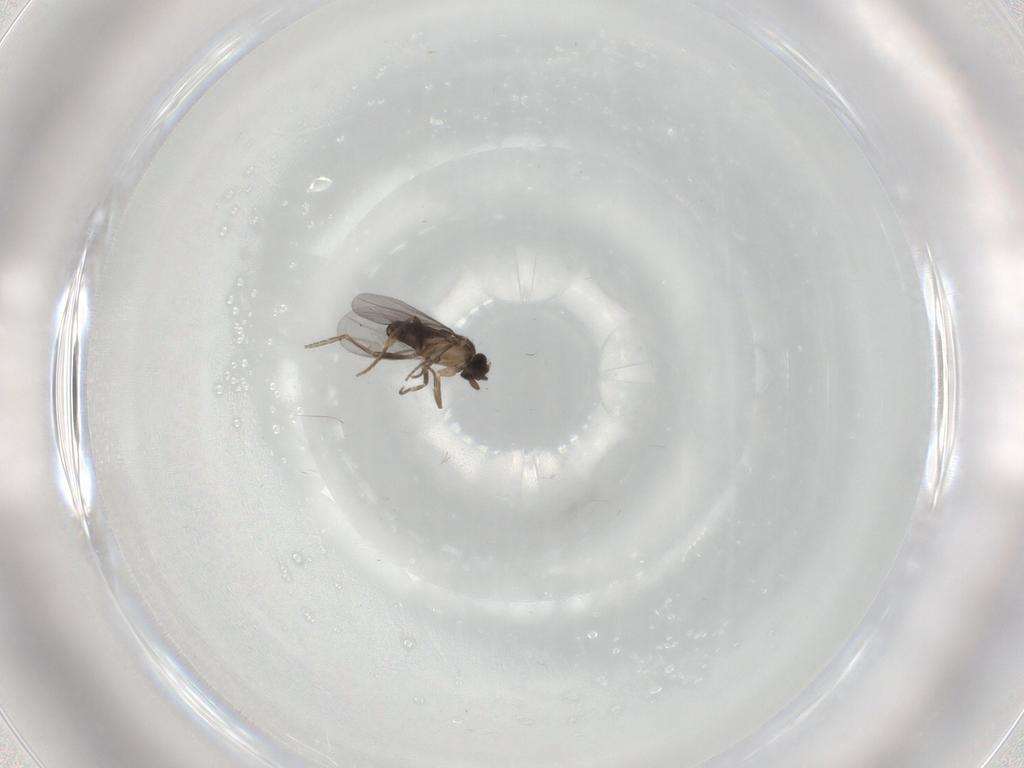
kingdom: Animalia
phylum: Arthropoda
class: Insecta
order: Diptera
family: Chironomidae
